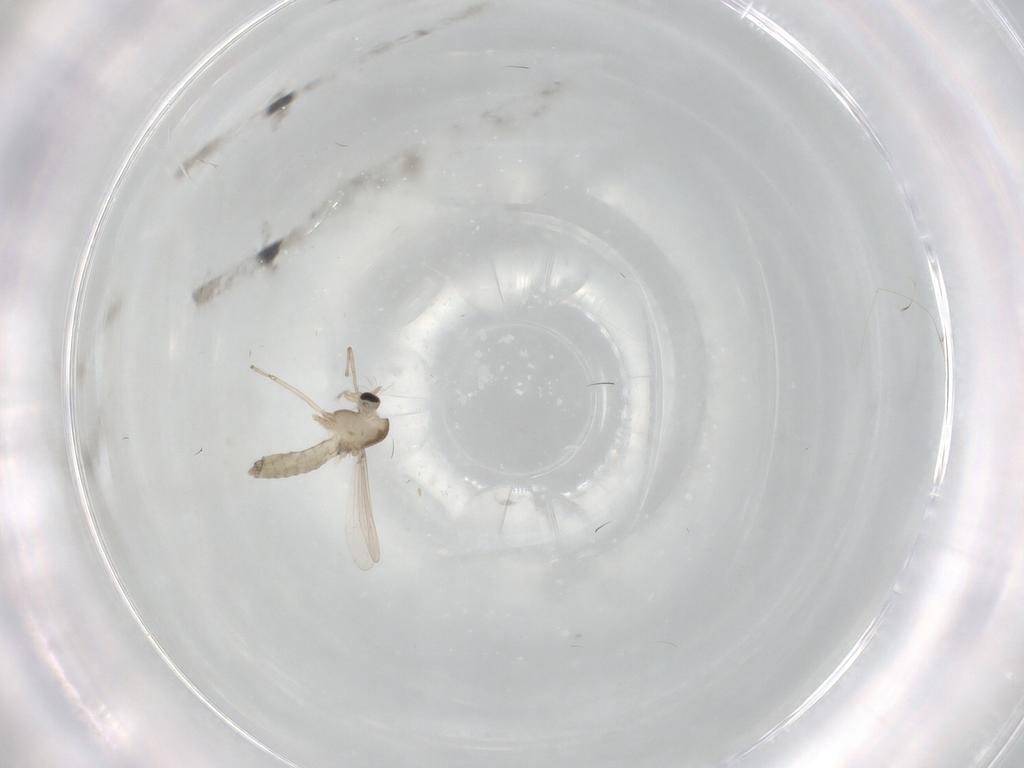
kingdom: Animalia
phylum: Arthropoda
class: Insecta
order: Diptera
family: Chironomidae
